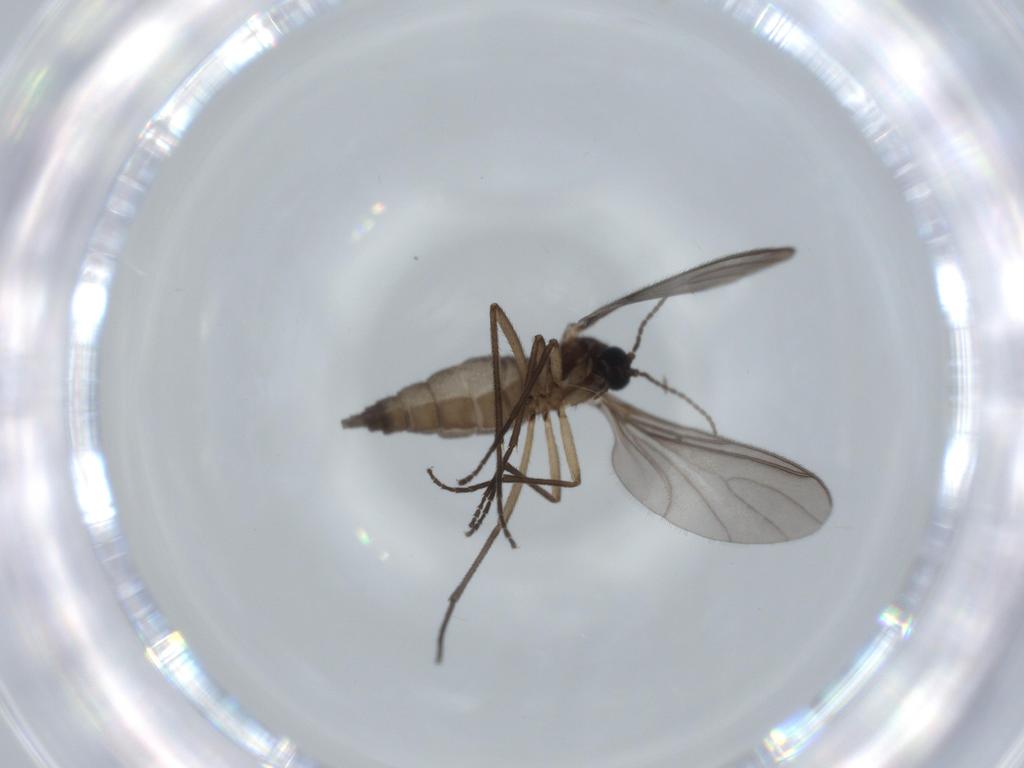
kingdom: Animalia
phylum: Arthropoda
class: Insecta
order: Diptera
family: Sciaridae
